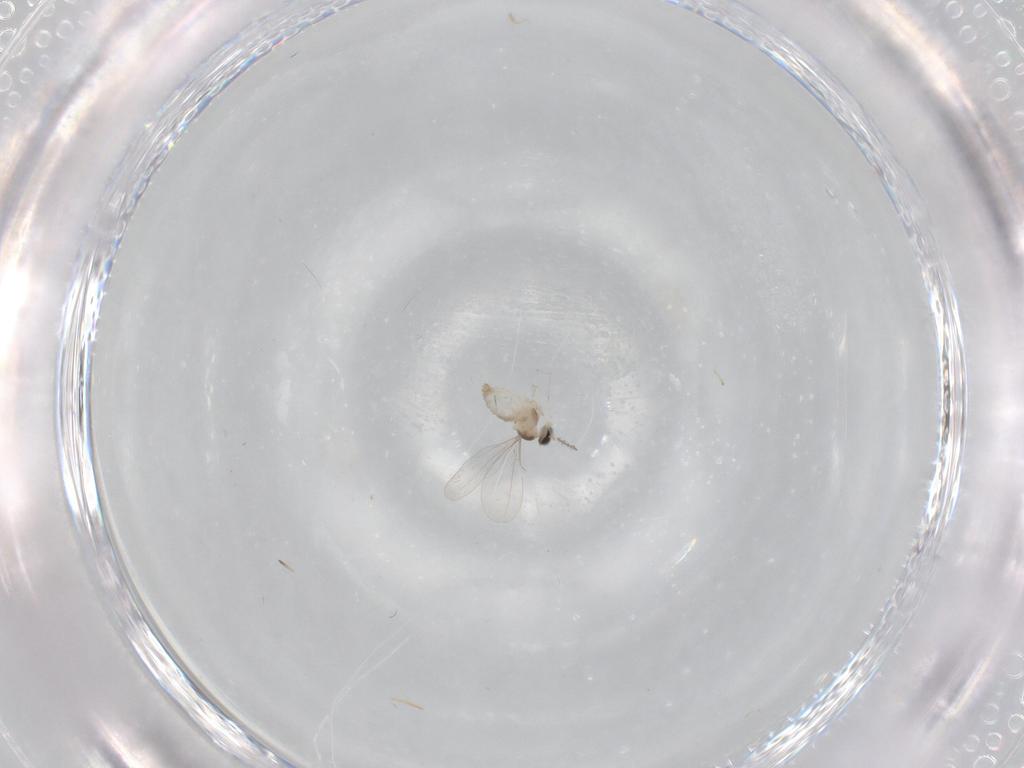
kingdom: Animalia
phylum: Arthropoda
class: Insecta
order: Diptera
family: Cecidomyiidae
